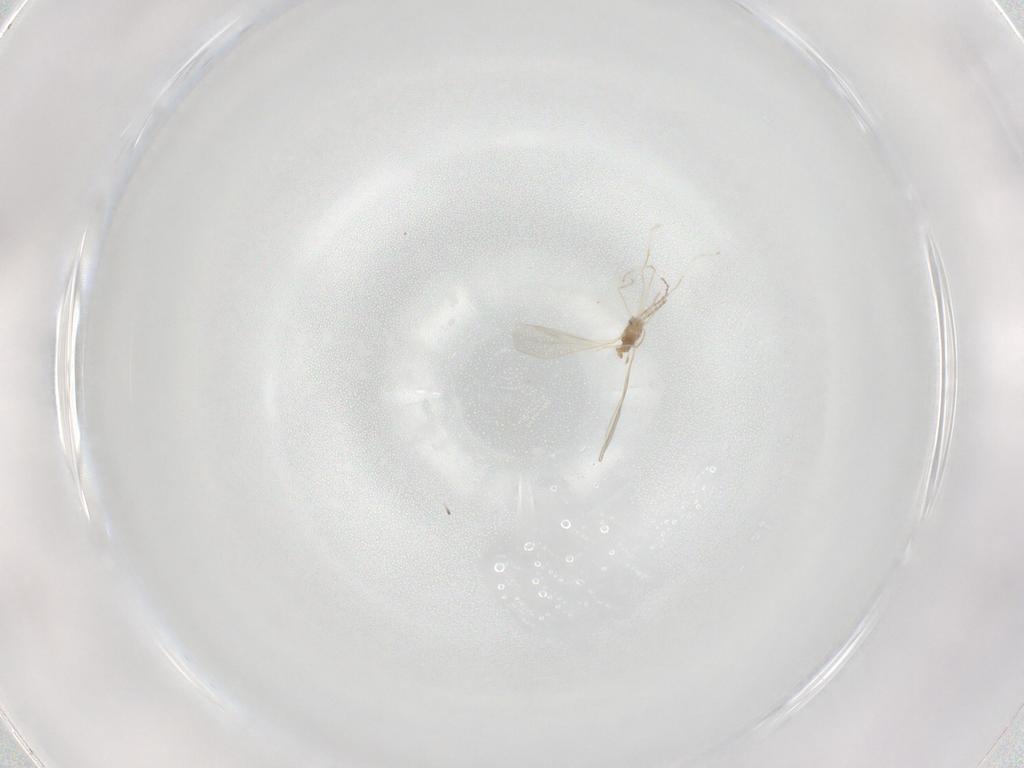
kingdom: Animalia
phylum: Arthropoda
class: Insecta
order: Diptera
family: Cecidomyiidae
